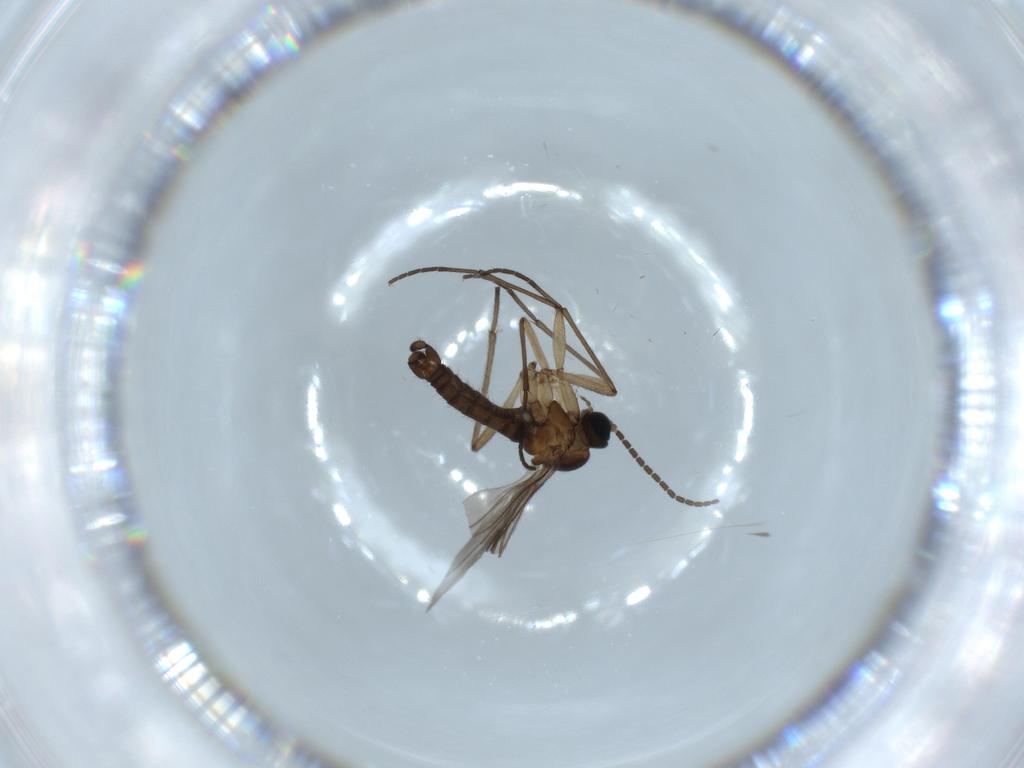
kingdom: Animalia
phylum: Arthropoda
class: Insecta
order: Diptera
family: Sciaridae
